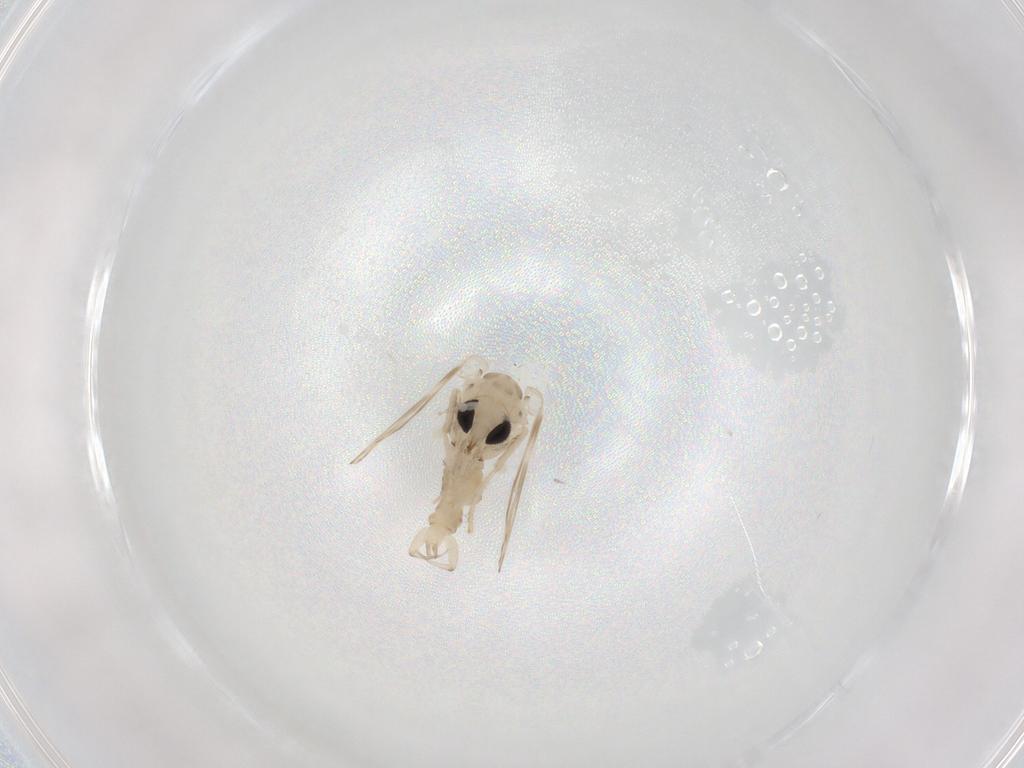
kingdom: Animalia
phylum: Arthropoda
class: Insecta
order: Diptera
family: Psychodidae
